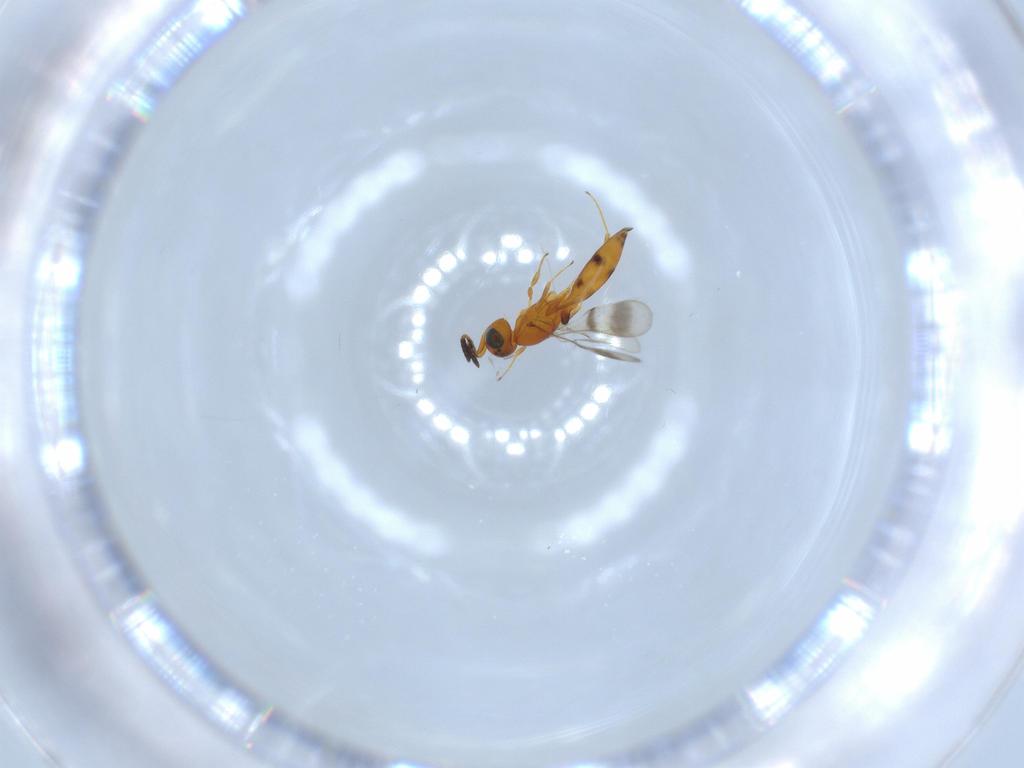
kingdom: Animalia
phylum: Arthropoda
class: Insecta
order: Hymenoptera
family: Scelionidae
